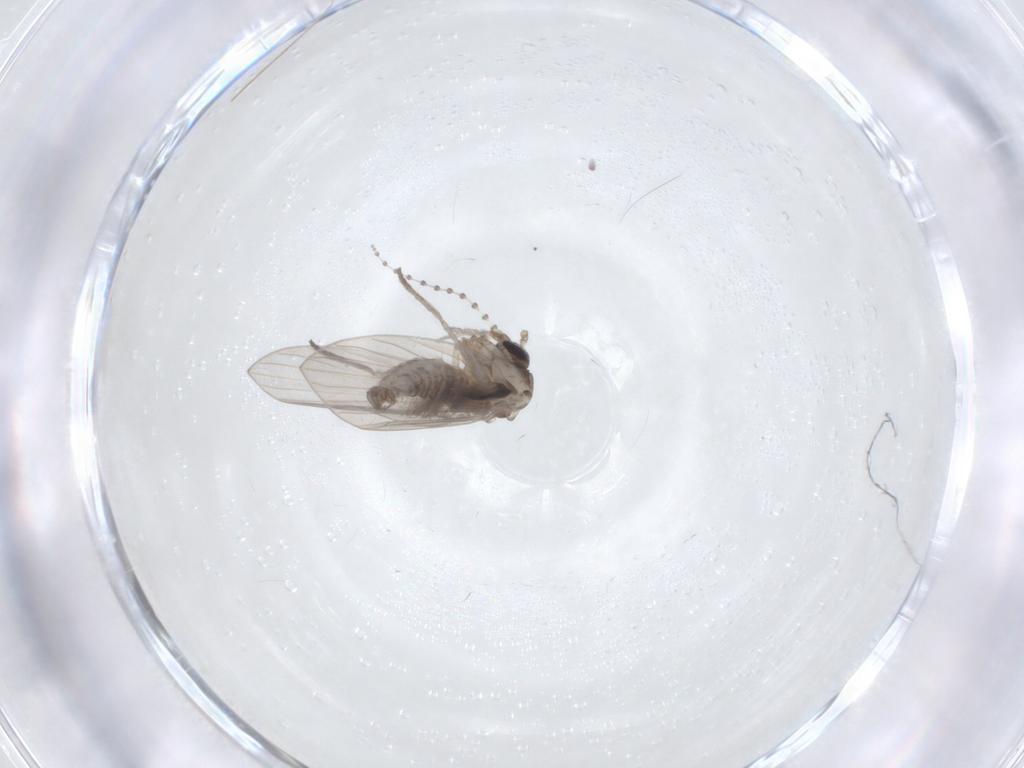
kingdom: Animalia
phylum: Arthropoda
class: Insecta
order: Diptera
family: Psychodidae
